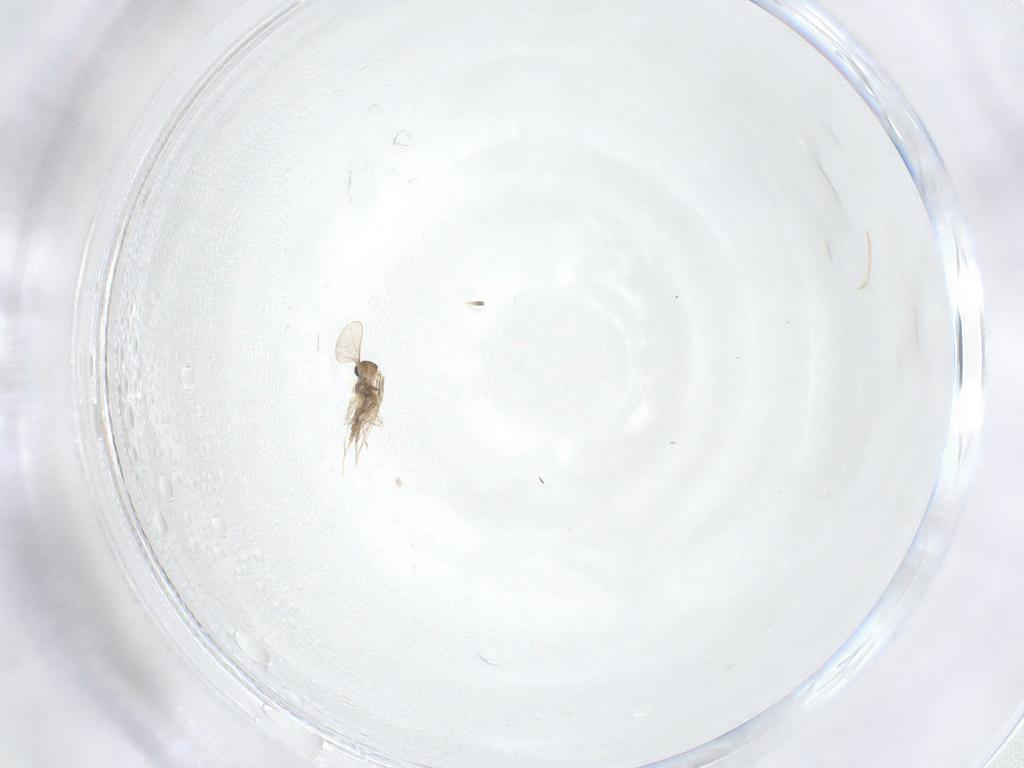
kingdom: Animalia
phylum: Arthropoda
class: Insecta
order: Diptera
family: Cecidomyiidae
